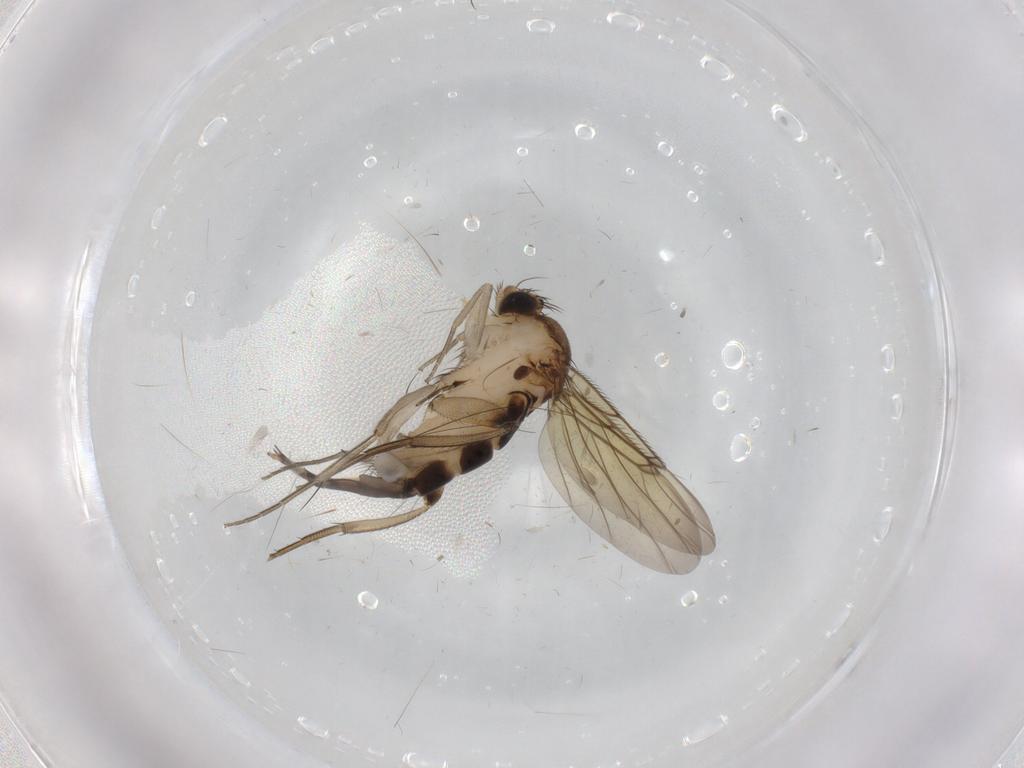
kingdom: Animalia
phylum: Arthropoda
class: Insecta
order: Diptera
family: Phoridae
